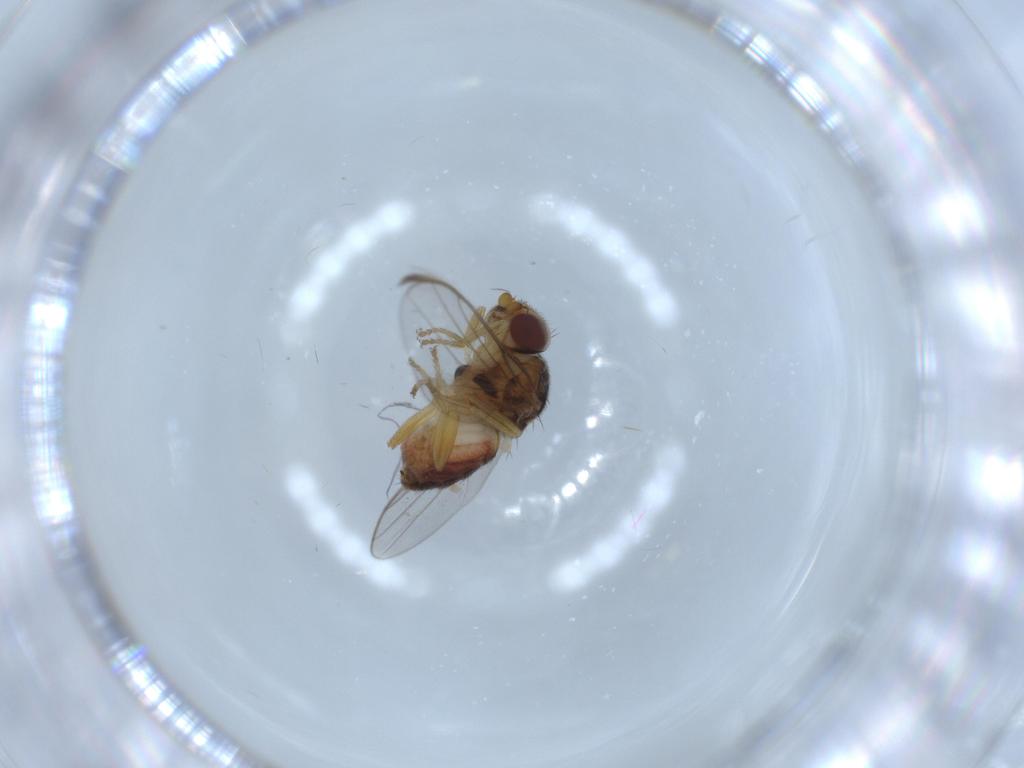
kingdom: Animalia
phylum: Arthropoda
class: Insecta
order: Diptera
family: Chloropidae
